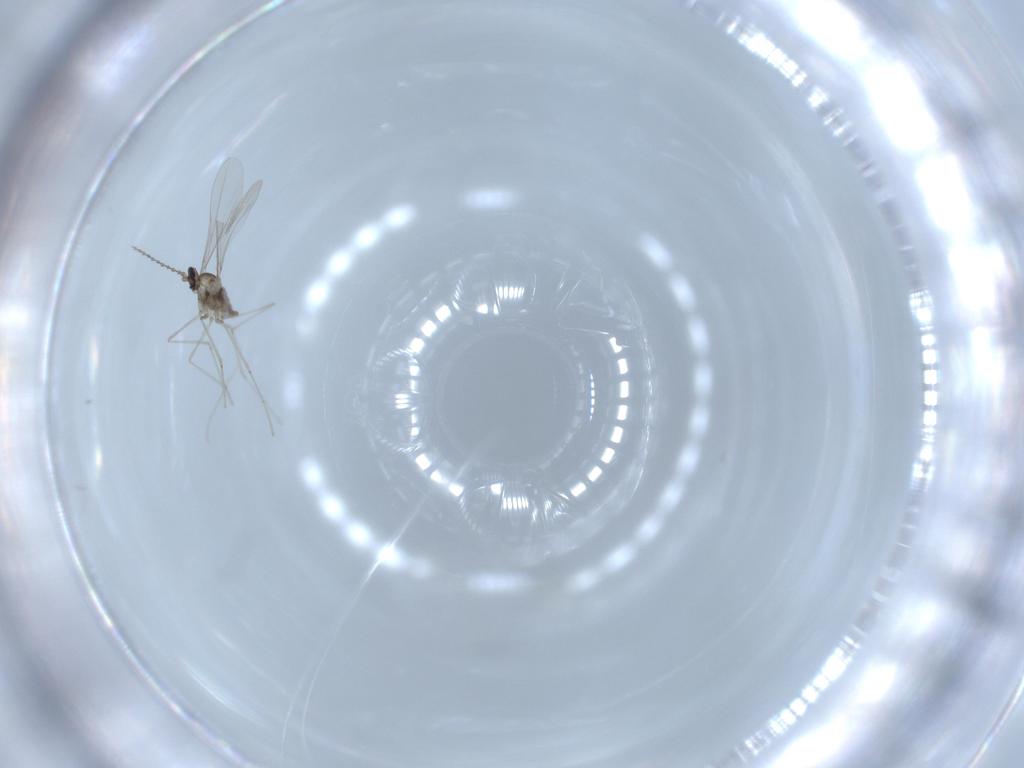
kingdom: Animalia
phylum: Arthropoda
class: Insecta
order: Diptera
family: Cecidomyiidae
